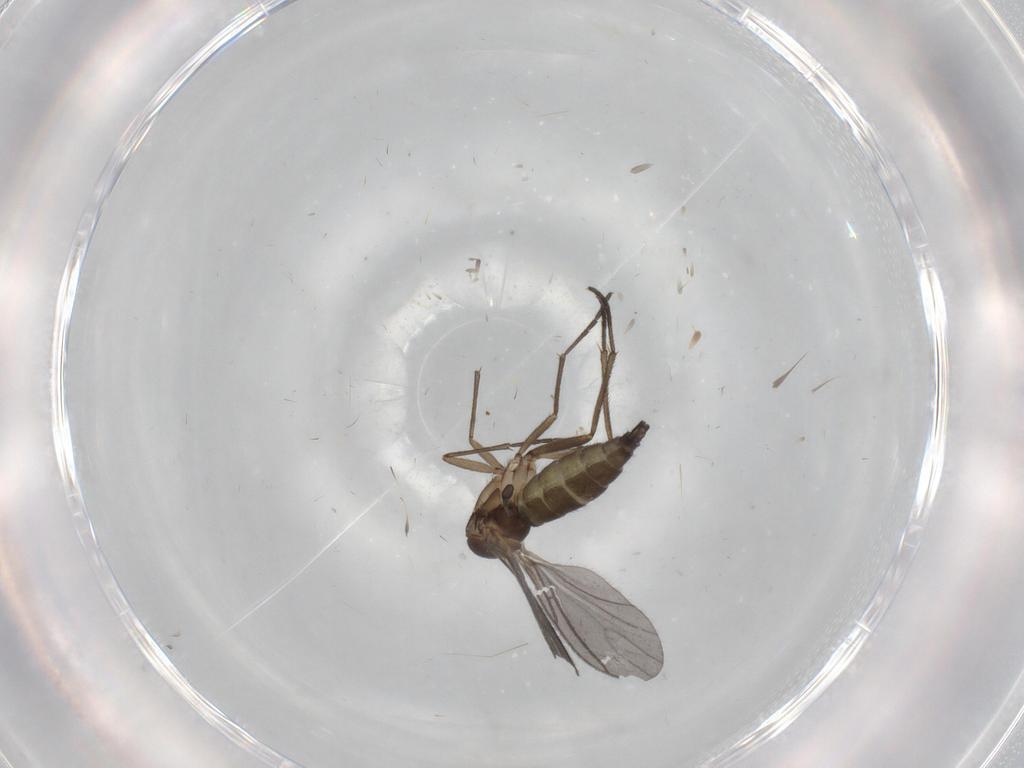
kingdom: Animalia
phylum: Arthropoda
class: Insecta
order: Diptera
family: Sciaridae
